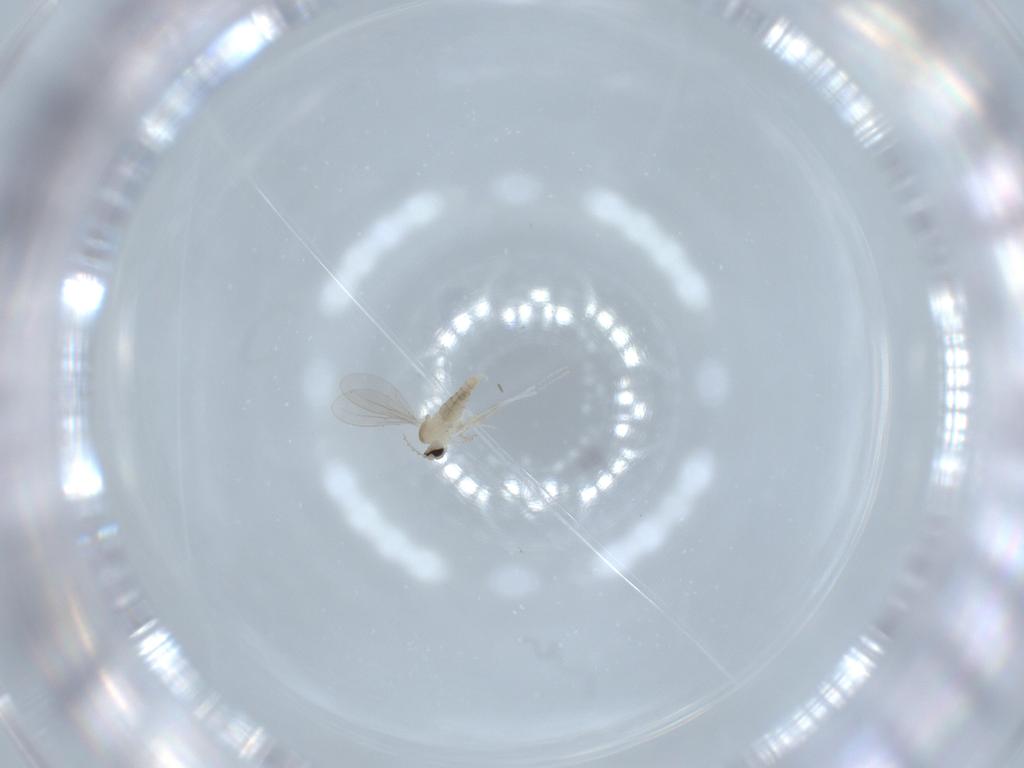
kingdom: Animalia
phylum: Arthropoda
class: Insecta
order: Diptera
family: Cecidomyiidae
